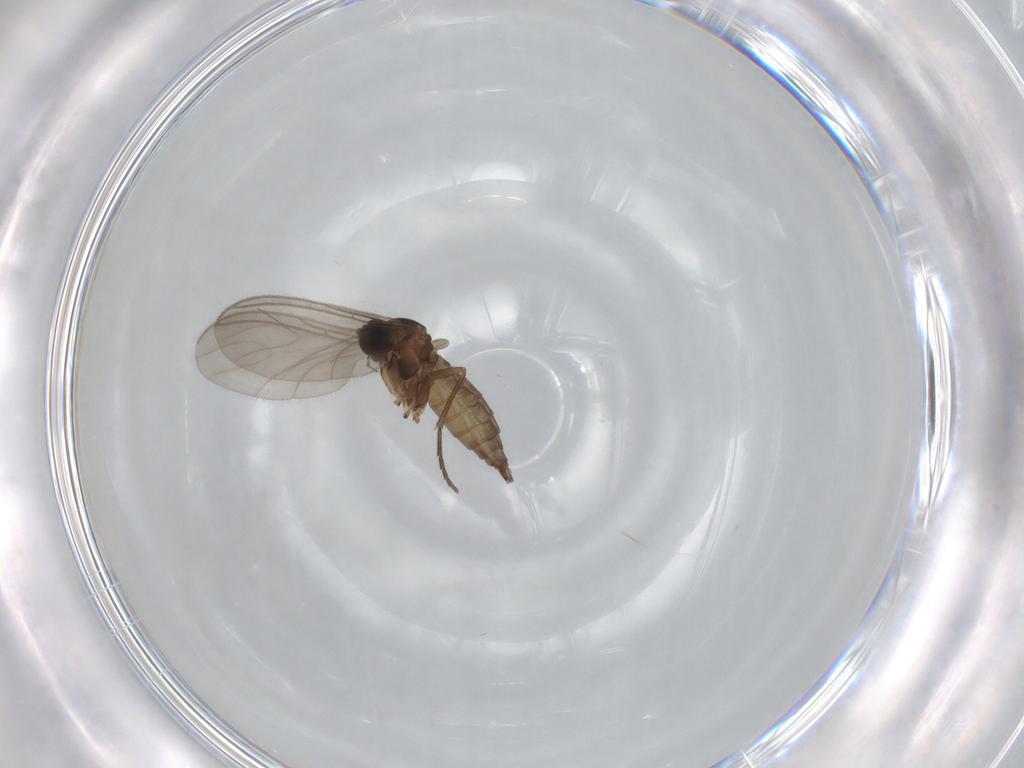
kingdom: Animalia
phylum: Arthropoda
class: Insecta
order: Diptera
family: Sciaridae
